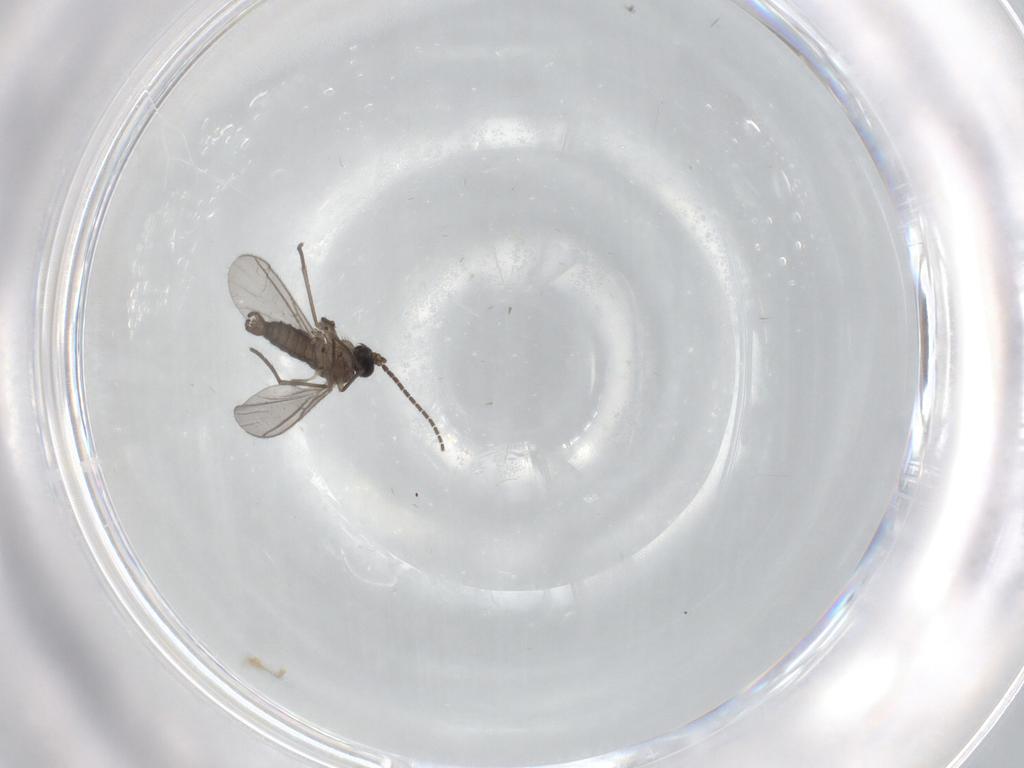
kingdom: Animalia
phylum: Arthropoda
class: Insecta
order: Diptera
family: Sciaridae
